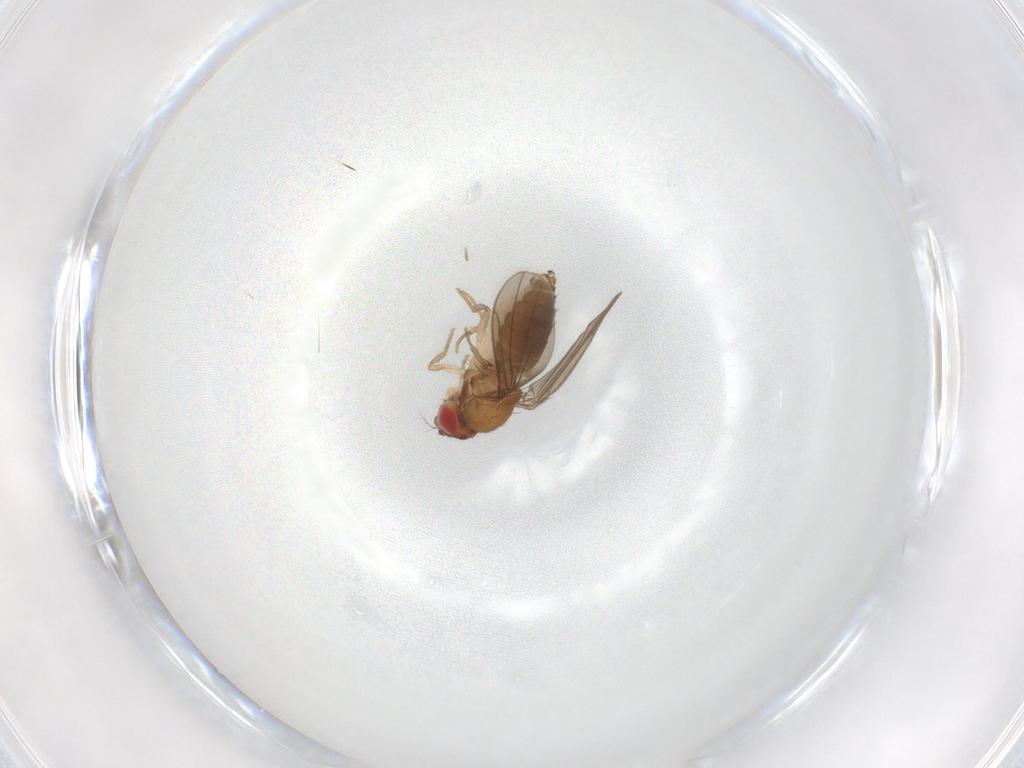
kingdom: Animalia
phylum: Arthropoda
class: Insecta
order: Diptera
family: Drosophilidae
